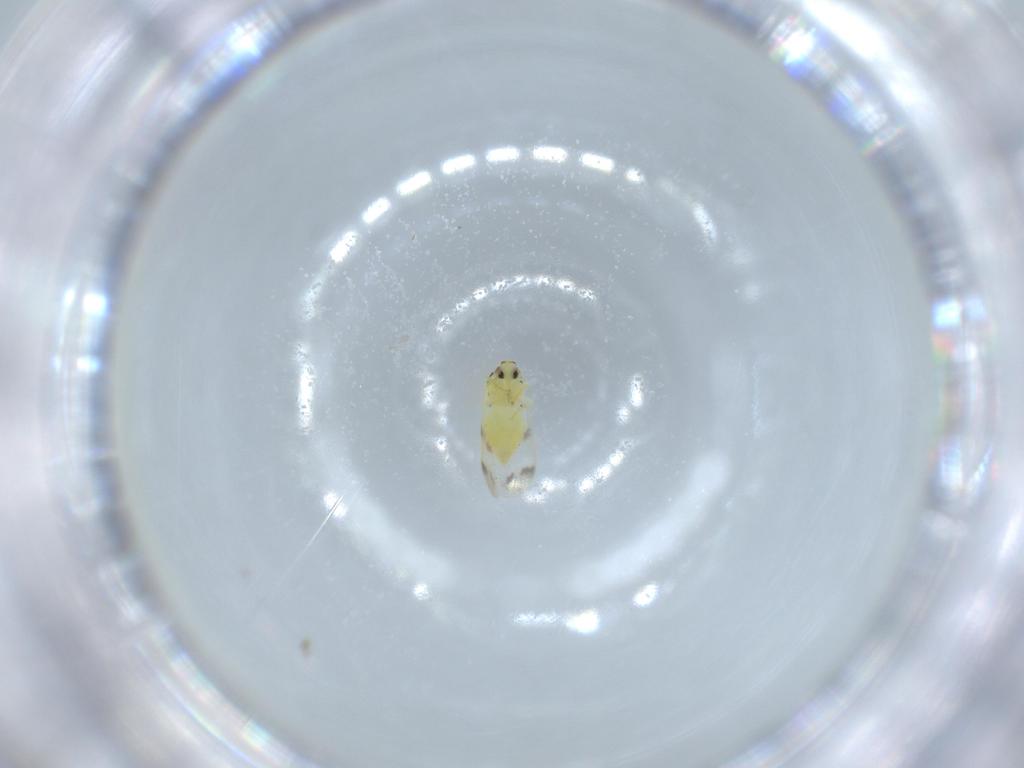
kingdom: Animalia
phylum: Arthropoda
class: Insecta
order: Hemiptera
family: Aleyrodidae
